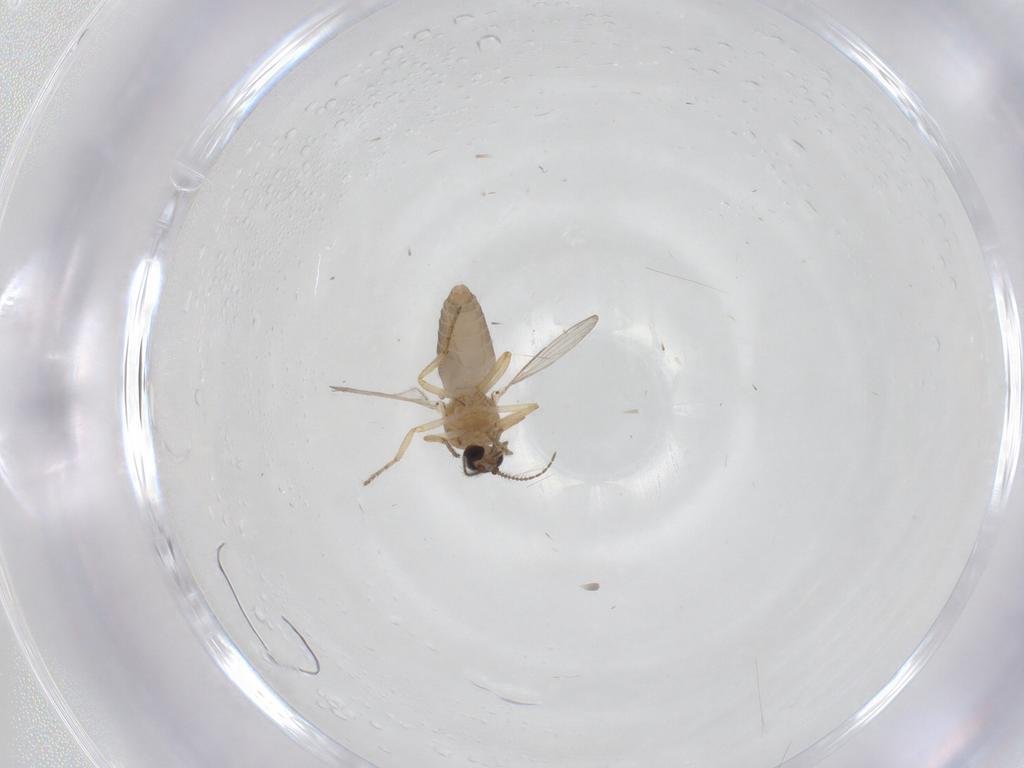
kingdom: Animalia
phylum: Arthropoda
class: Insecta
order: Diptera
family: Ceratopogonidae
